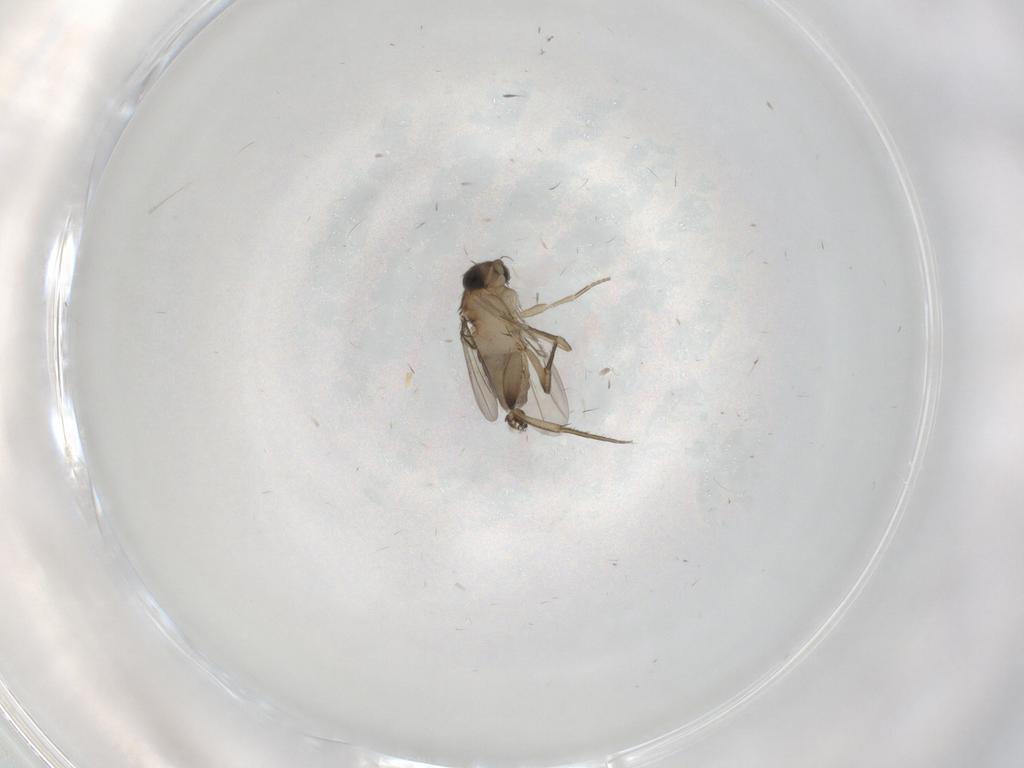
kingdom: Animalia
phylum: Arthropoda
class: Insecta
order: Diptera
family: Phoridae
